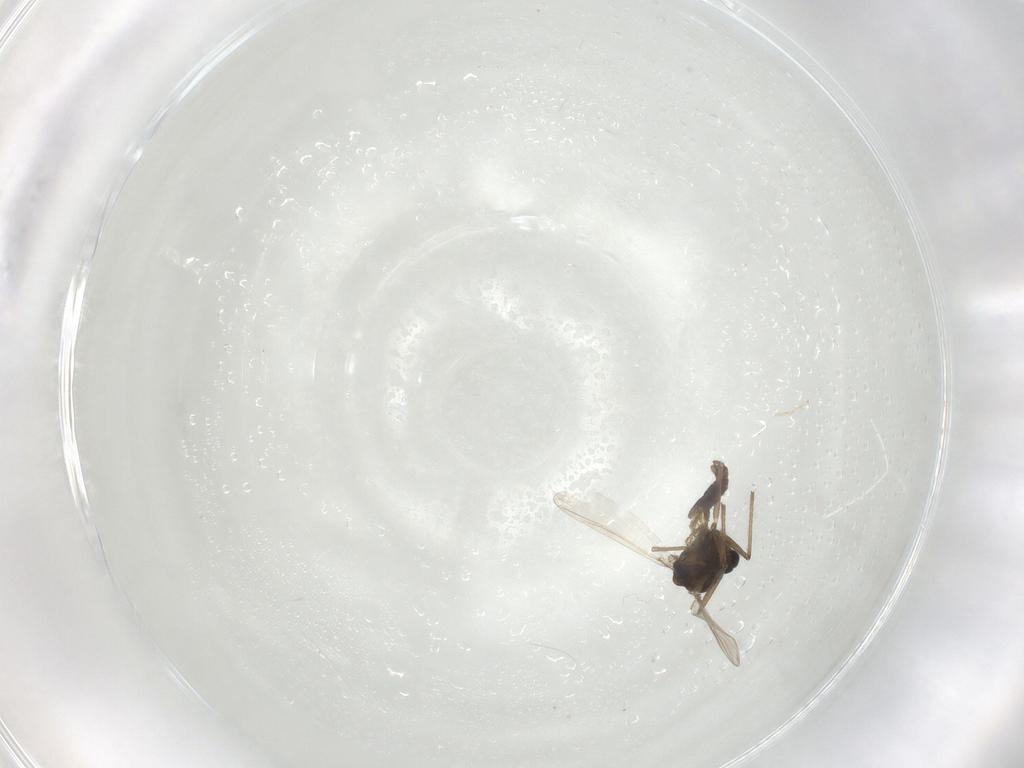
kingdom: Animalia
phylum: Arthropoda
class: Insecta
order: Diptera
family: Chironomidae
